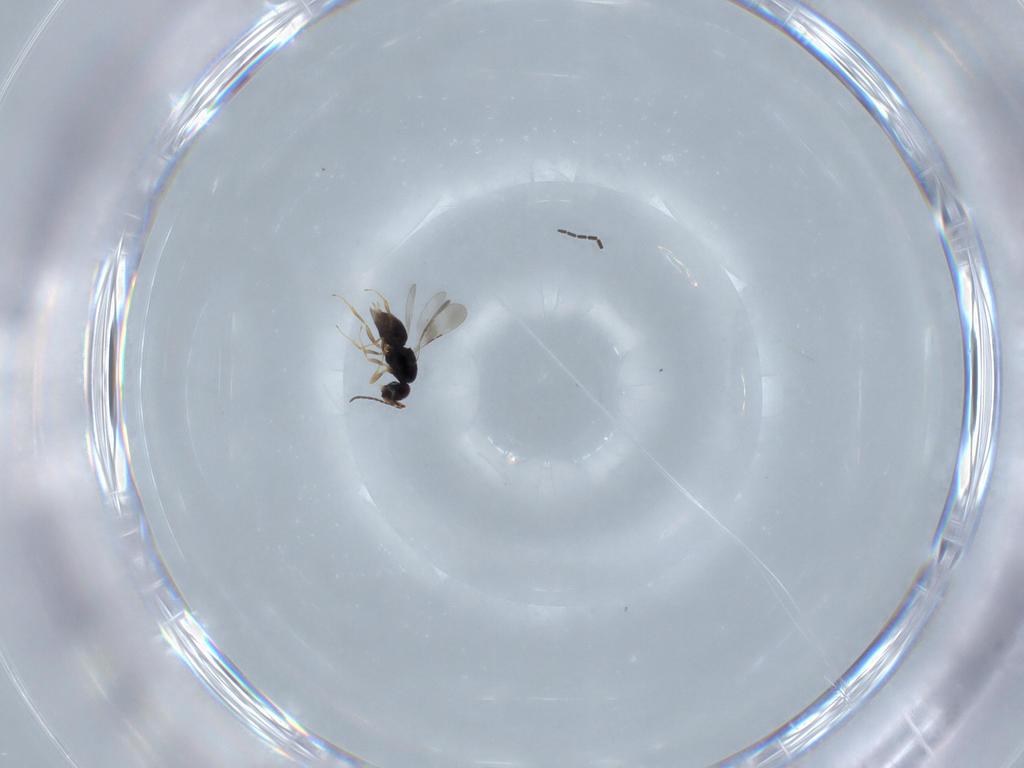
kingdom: Animalia
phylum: Arthropoda
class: Insecta
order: Hymenoptera
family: Ceraphronidae
